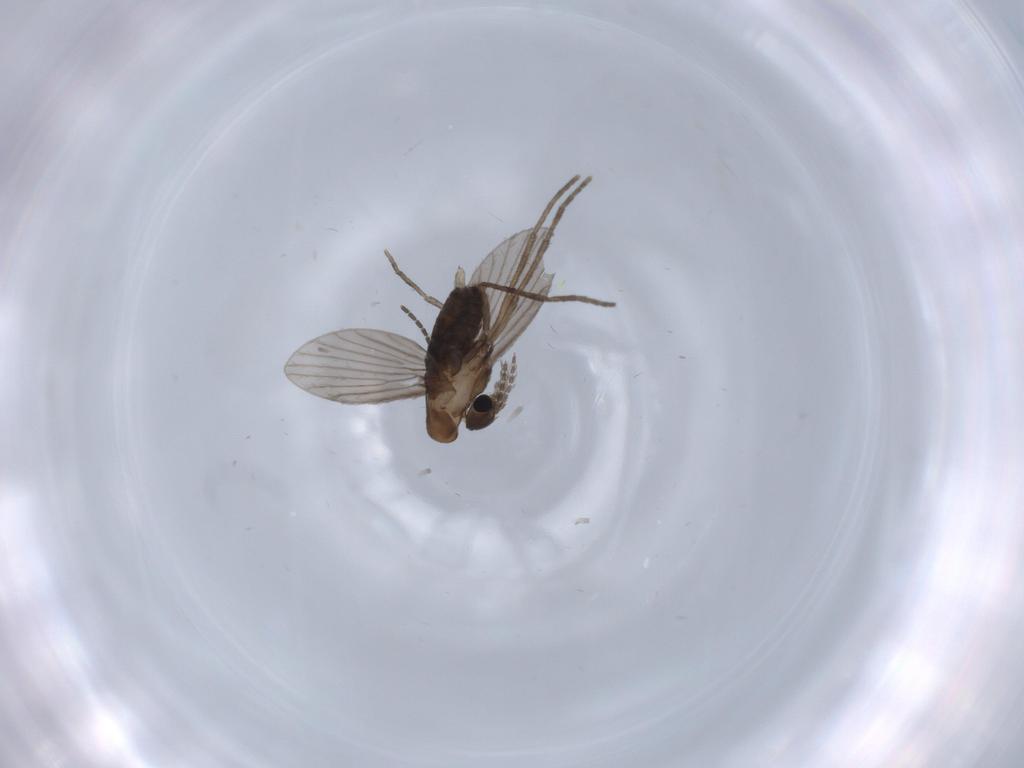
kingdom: Animalia
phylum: Arthropoda
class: Insecta
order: Diptera
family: Psychodidae
